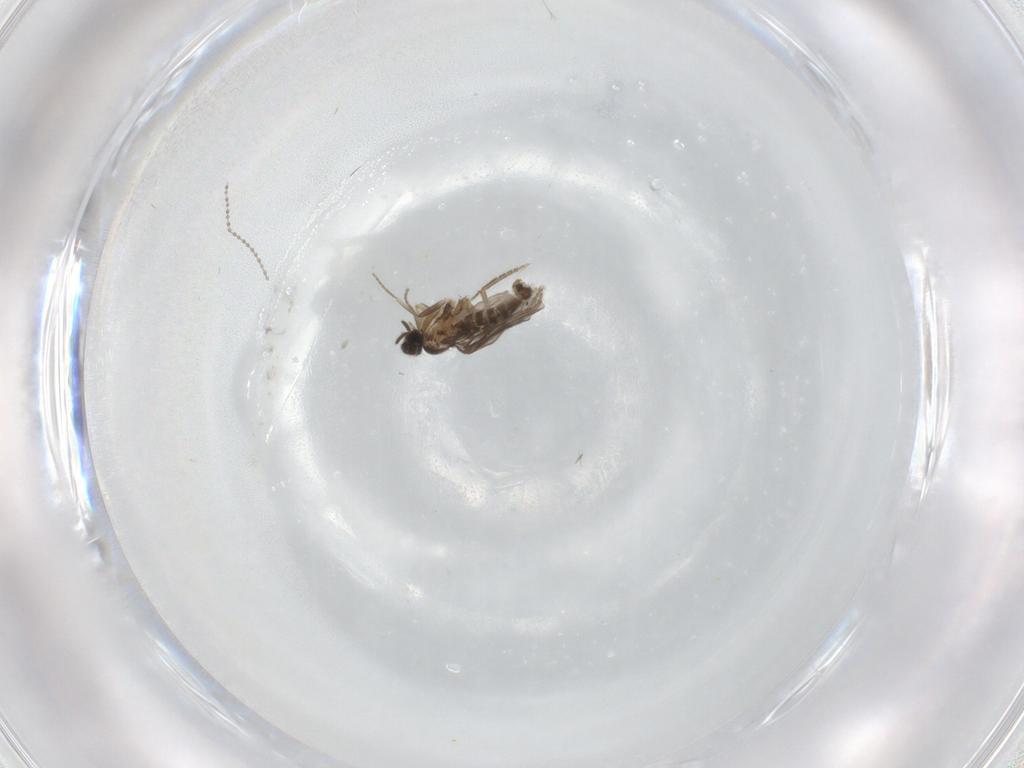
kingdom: Animalia
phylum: Arthropoda
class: Insecta
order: Diptera
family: Cecidomyiidae
